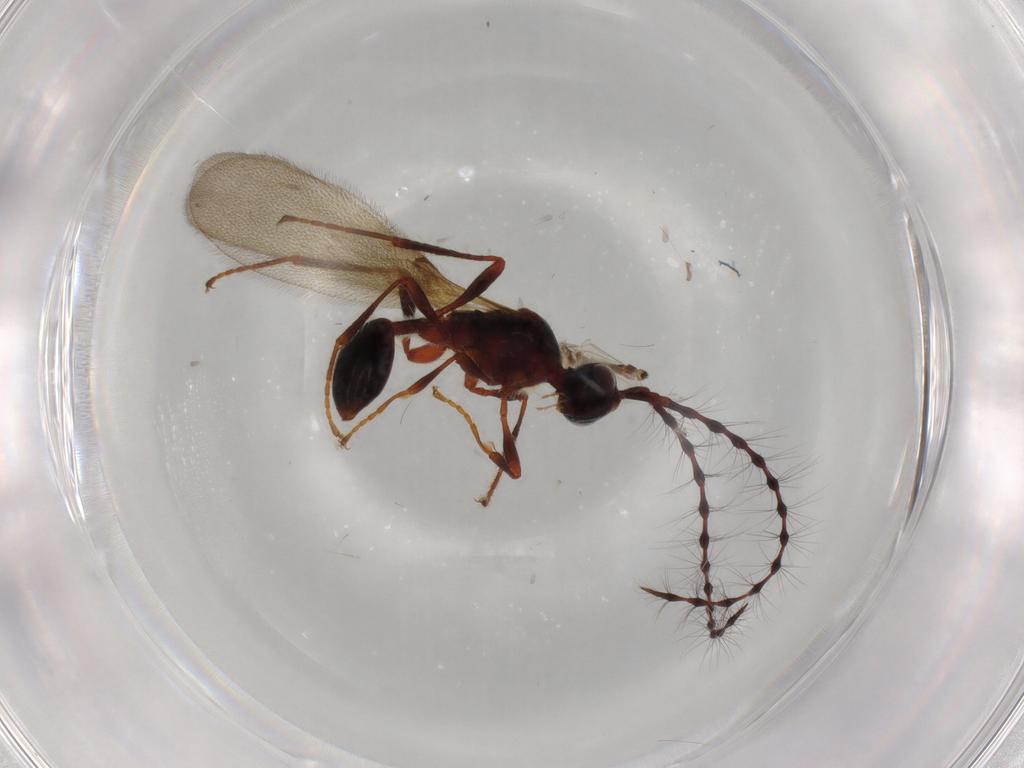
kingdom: Animalia
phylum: Arthropoda
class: Insecta
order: Hymenoptera
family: Diapriidae
